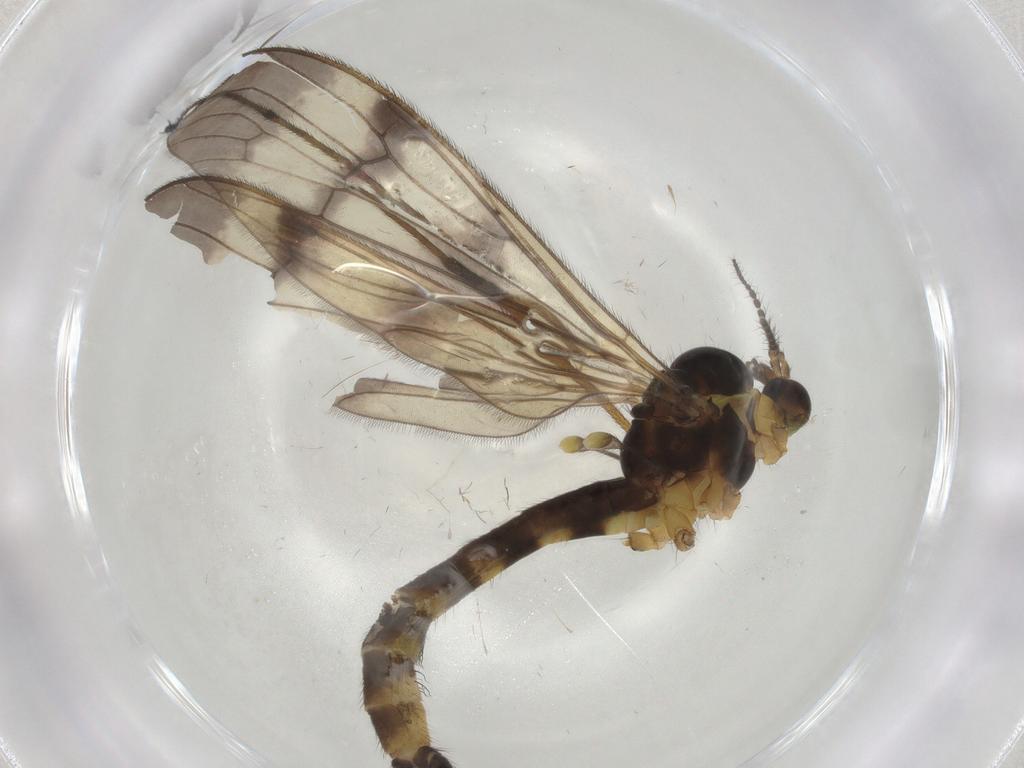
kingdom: Animalia
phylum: Arthropoda
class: Insecta
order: Diptera
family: Limoniidae
